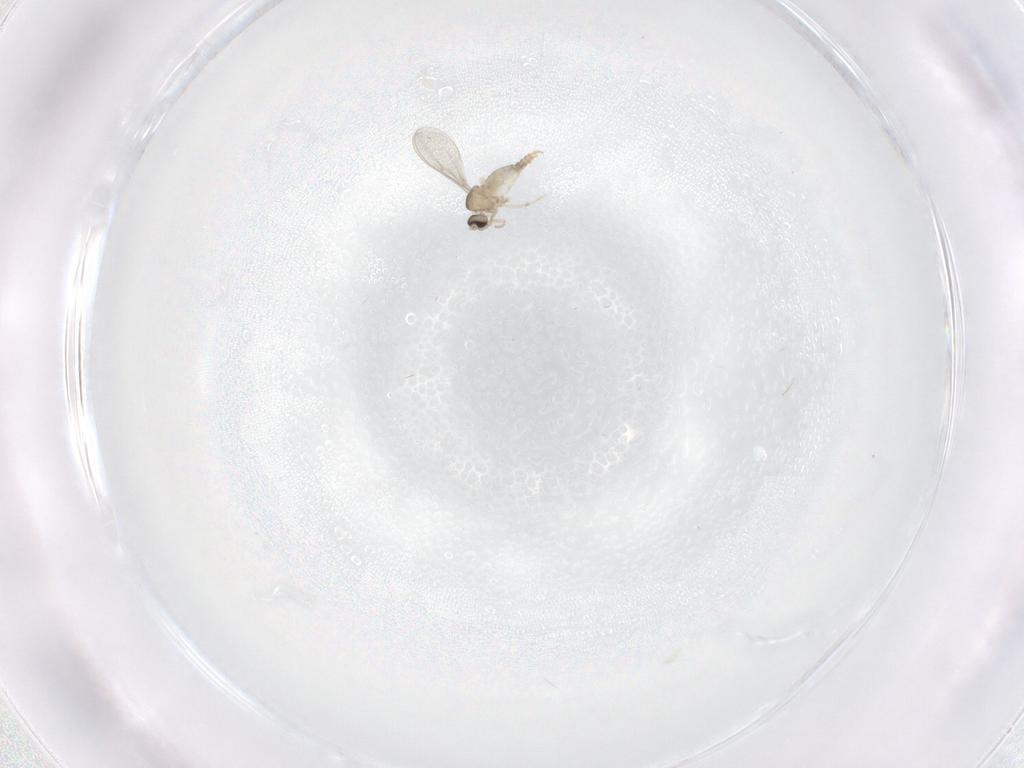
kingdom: Animalia
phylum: Arthropoda
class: Insecta
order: Diptera
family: Cecidomyiidae
